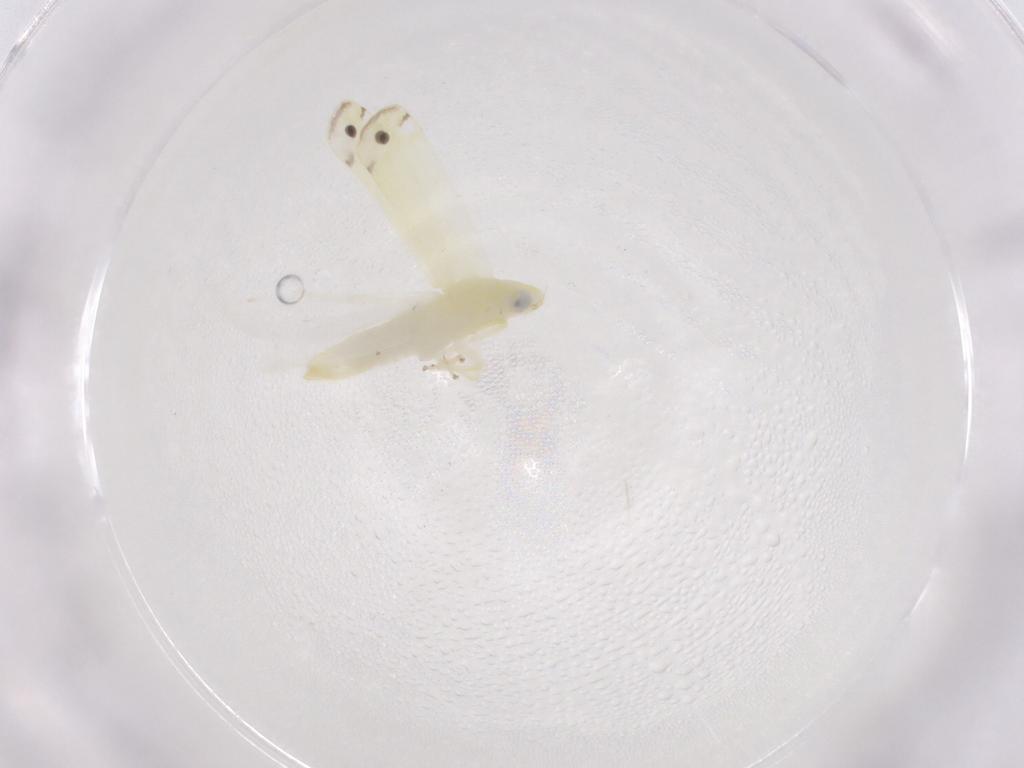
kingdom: Animalia
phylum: Arthropoda
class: Insecta
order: Hemiptera
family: Cicadellidae
